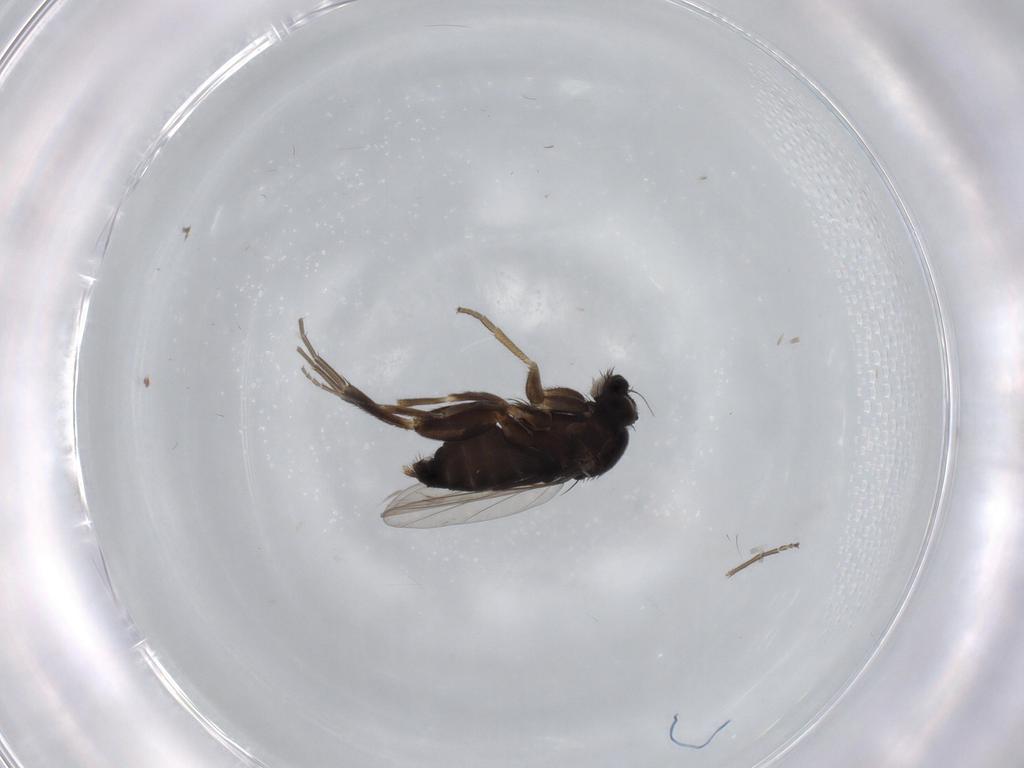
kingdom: Animalia
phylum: Arthropoda
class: Insecta
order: Diptera
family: Phoridae
